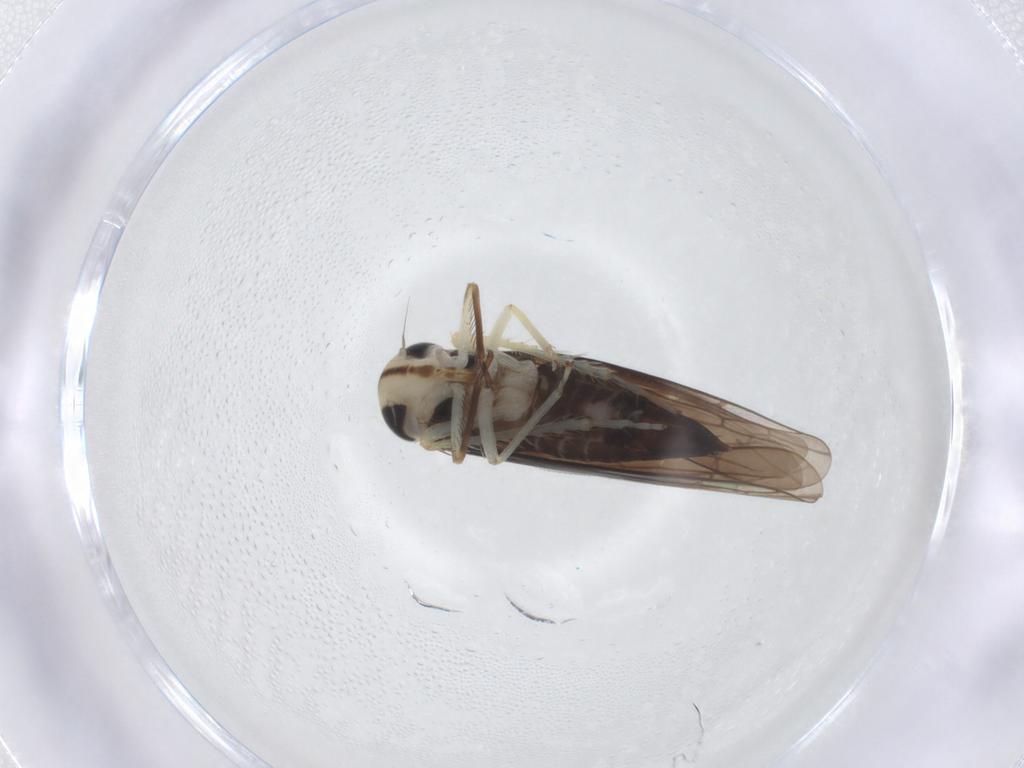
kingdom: Animalia
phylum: Arthropoda
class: Insecta
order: Hemiptera
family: Cicadellidae
